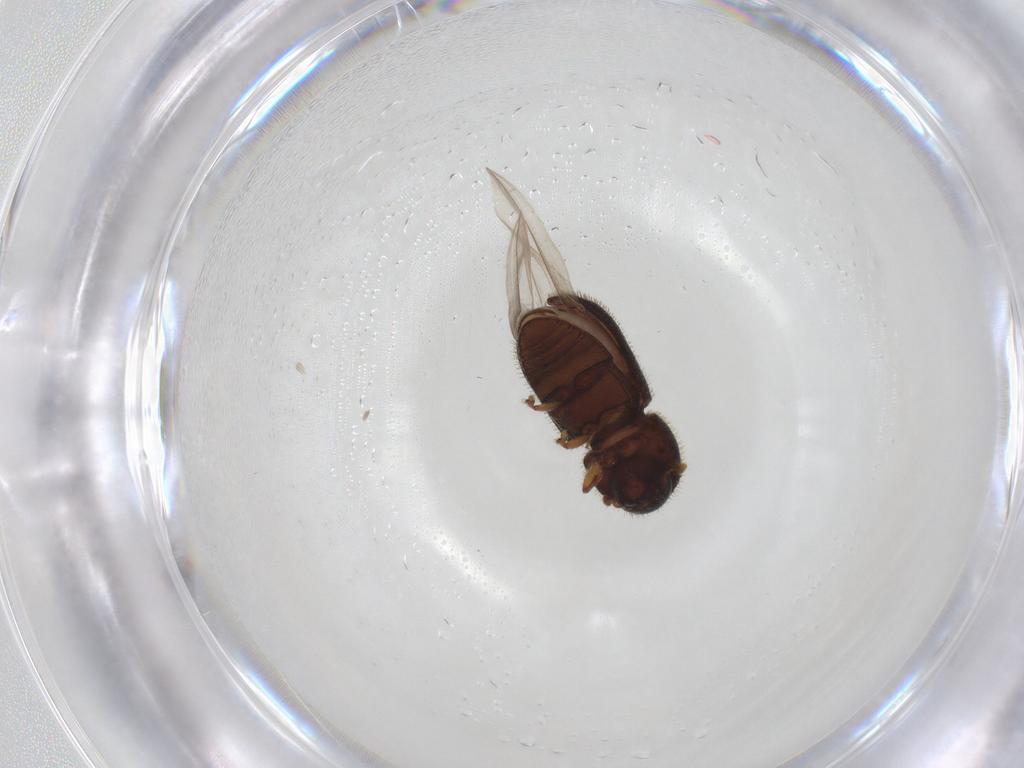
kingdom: Animalia
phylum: Arthropoda
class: Insecta
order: Coleoptera
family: Curculionidae
